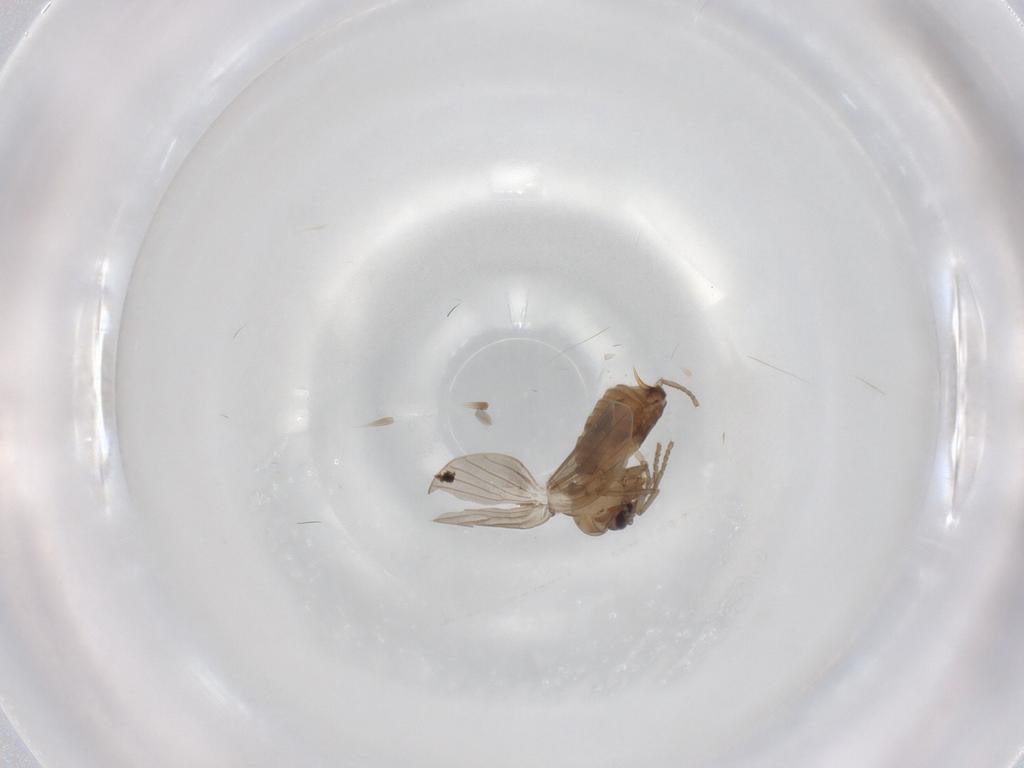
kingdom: Animalia
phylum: Arthropoda
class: Insecta
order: Diptera
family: Psychodidae
